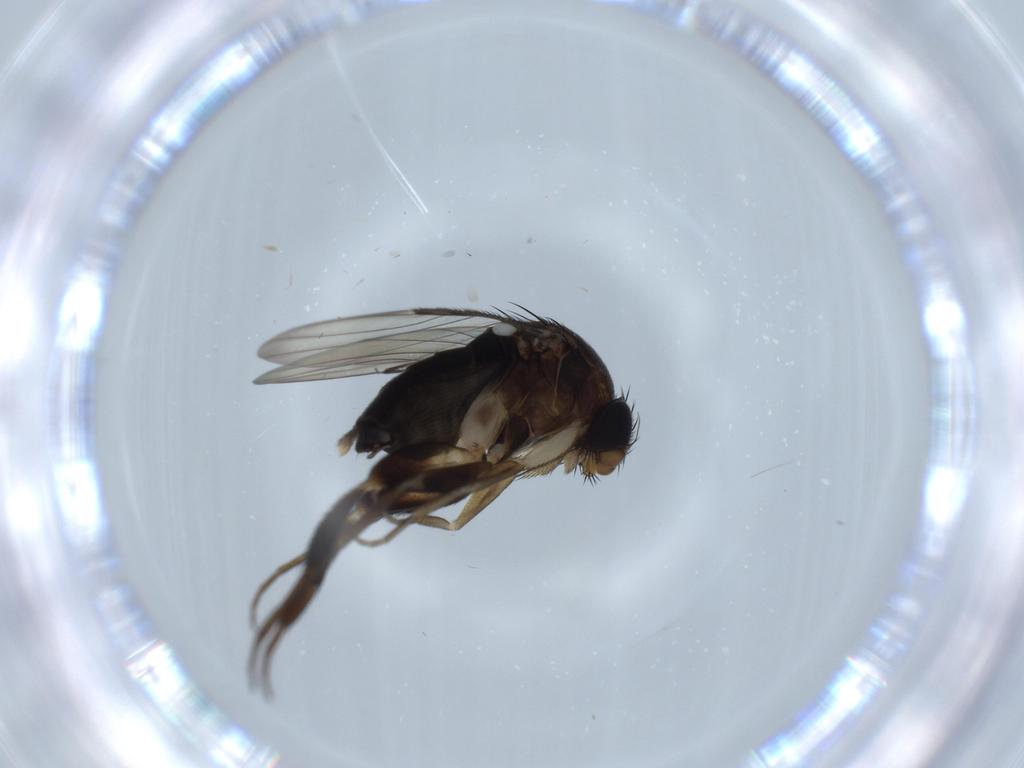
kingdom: Animalia
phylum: Arthropoda
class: Insecta
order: Diptera
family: Phoridae
